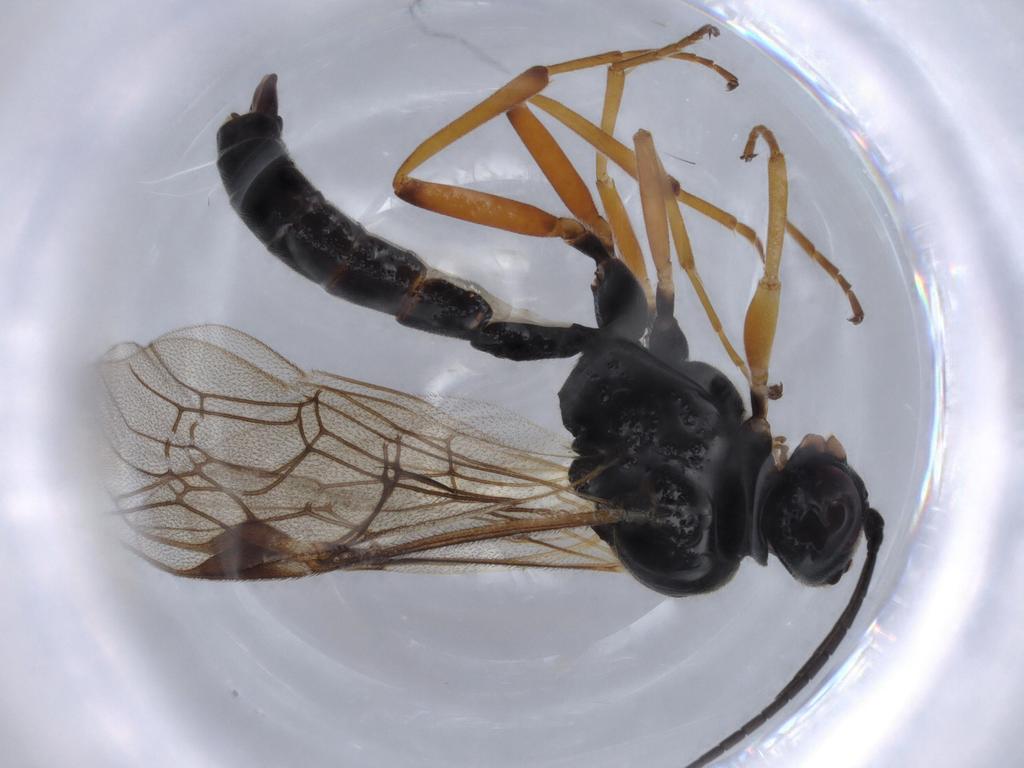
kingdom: Animalia
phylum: Arthropoda
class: Insecta
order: Hymenoptera
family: Ichneumonidae
